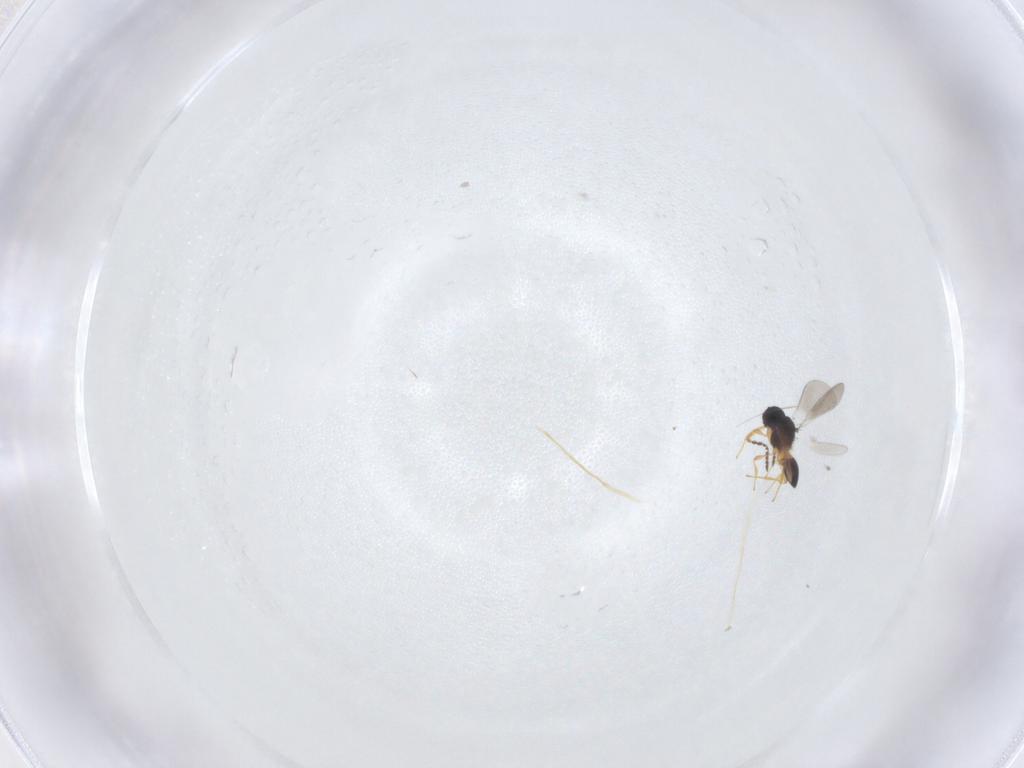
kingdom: Animalia
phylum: Arthropoda
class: Insecta
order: Hymenoptera
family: Platygastridae
